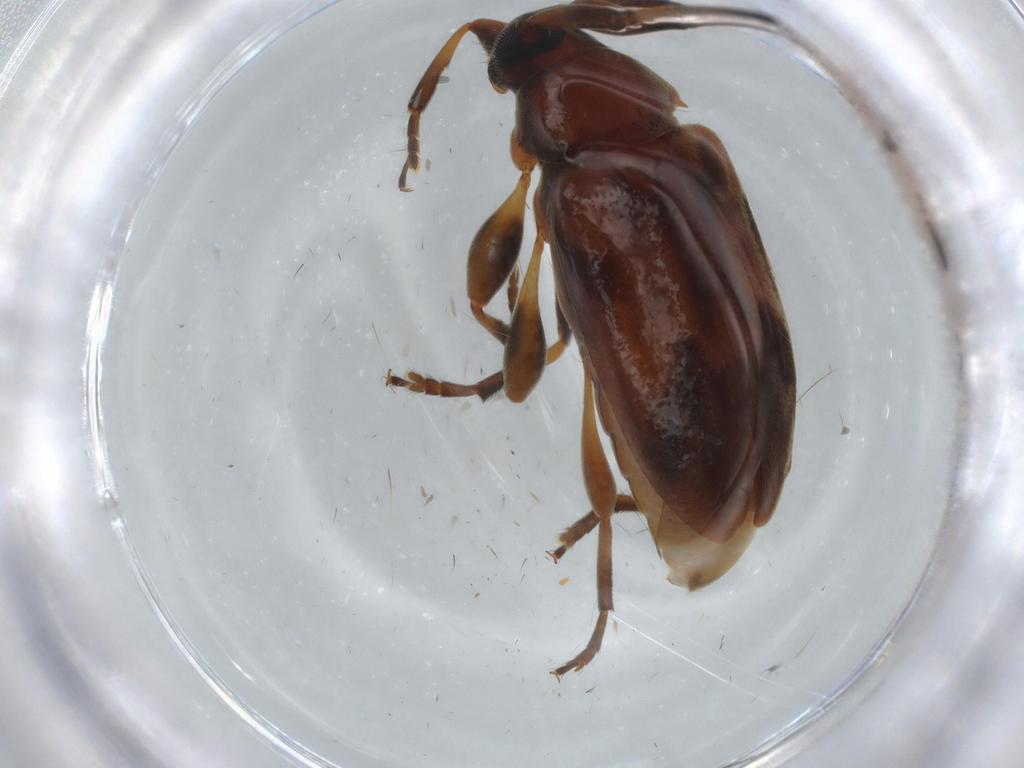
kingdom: Animalia
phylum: Arthropoda
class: Insecta
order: Coleoptera
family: Cerambycidae
